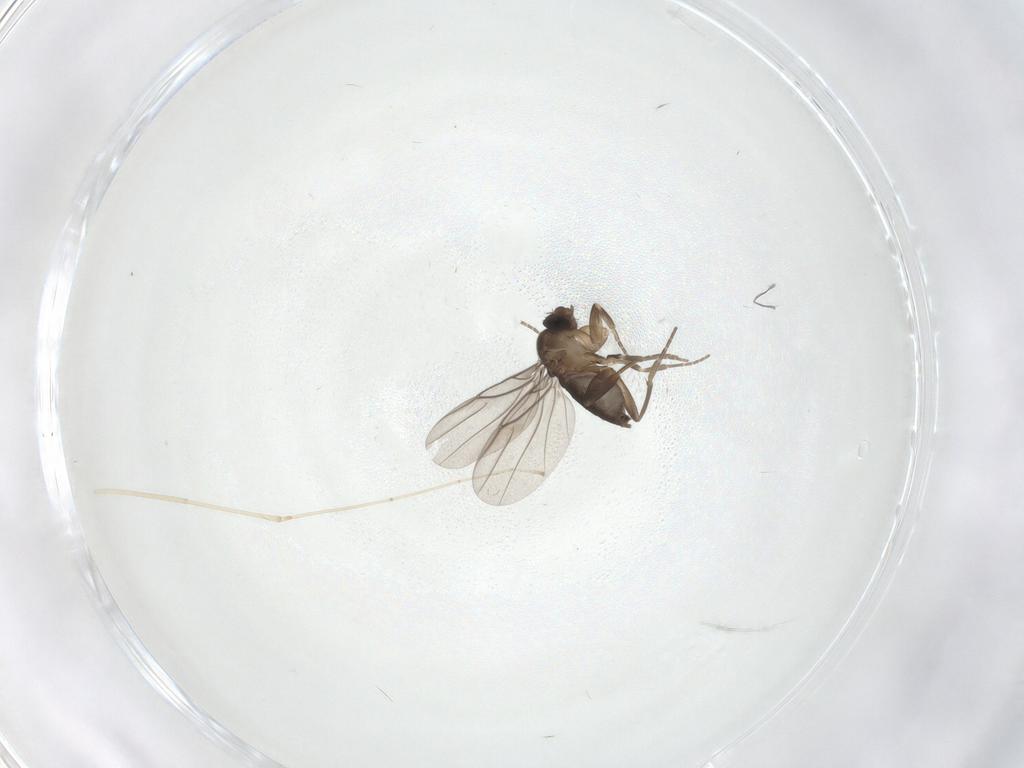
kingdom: Animalia
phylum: Arthropoda
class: Insecta
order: Diptera
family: Phoridae
